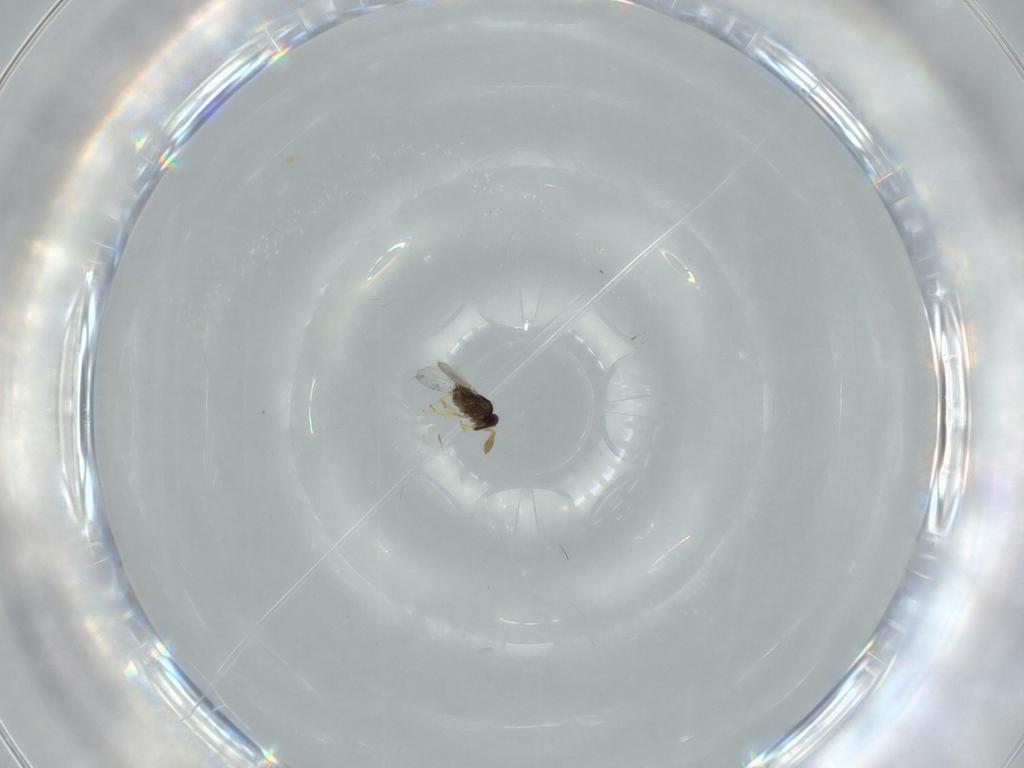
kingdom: Animalia
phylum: Arthropoda
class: Insecta
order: Hymenoptera
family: Encyrtidae
